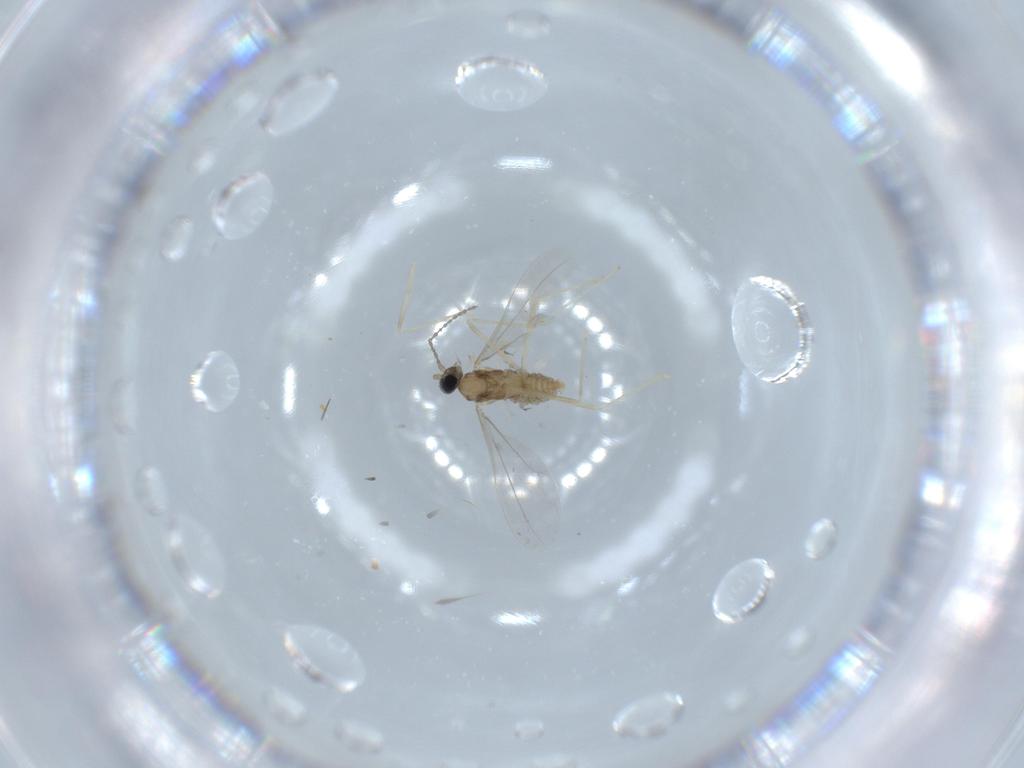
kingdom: Animalia
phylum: Arthropoda
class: Insecta
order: Diptera
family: Cecidomyiidae
